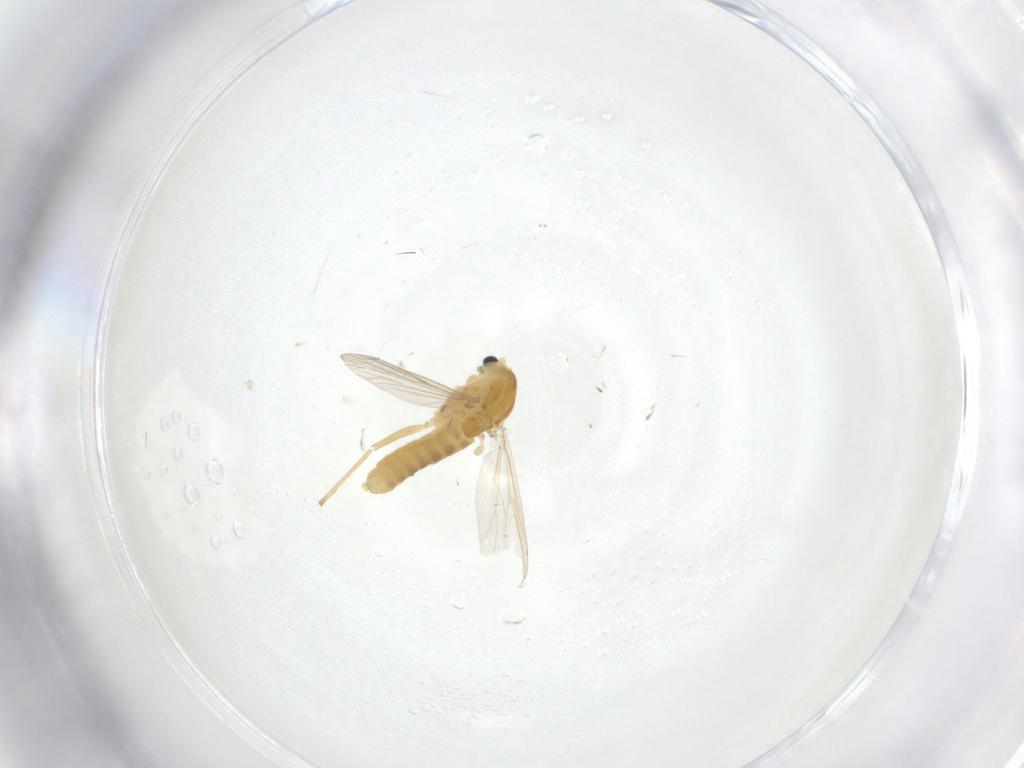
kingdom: Animalia
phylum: Arthropoda
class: Insecta
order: Diptera
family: Chironomidae
